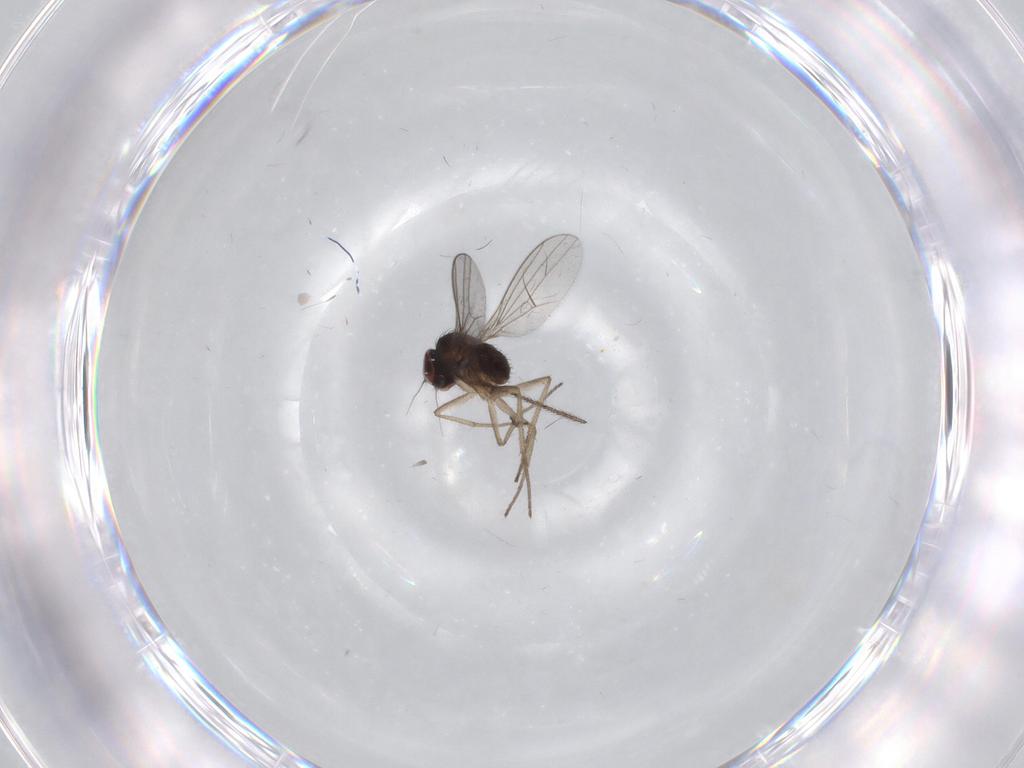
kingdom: Animalia
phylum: Arthropoda
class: Insecta
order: Diptera
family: Dolichopodidae
